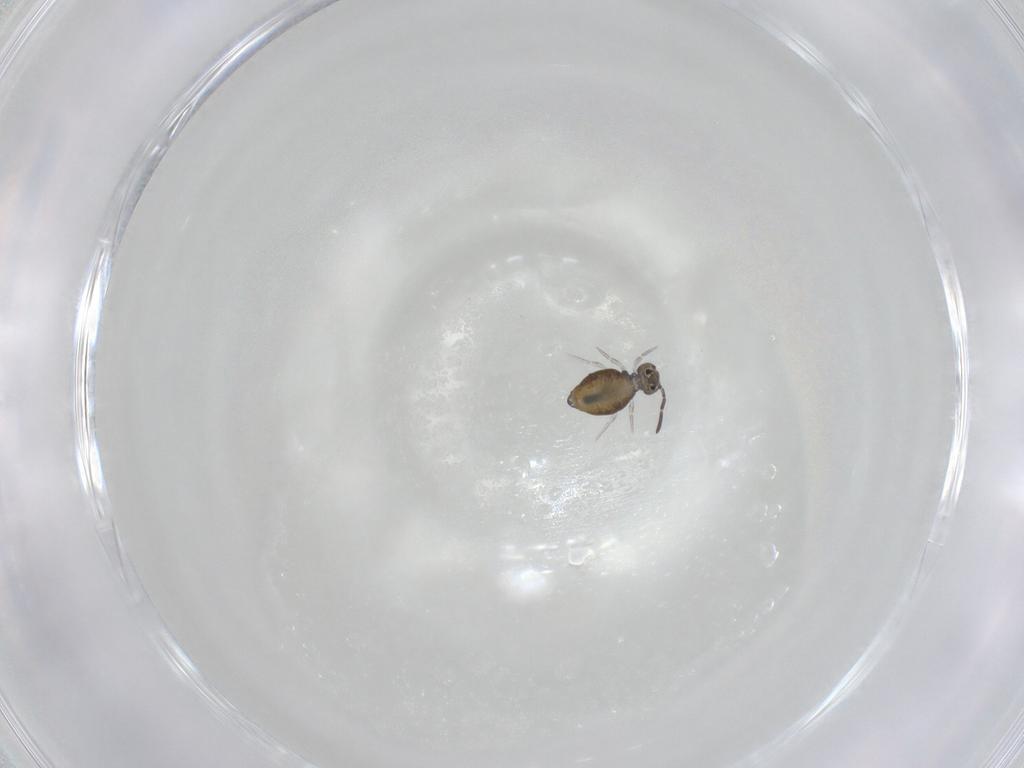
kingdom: Animalia
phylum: Arthropoda
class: Collembola
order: Symphypleona
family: Katiannidae
